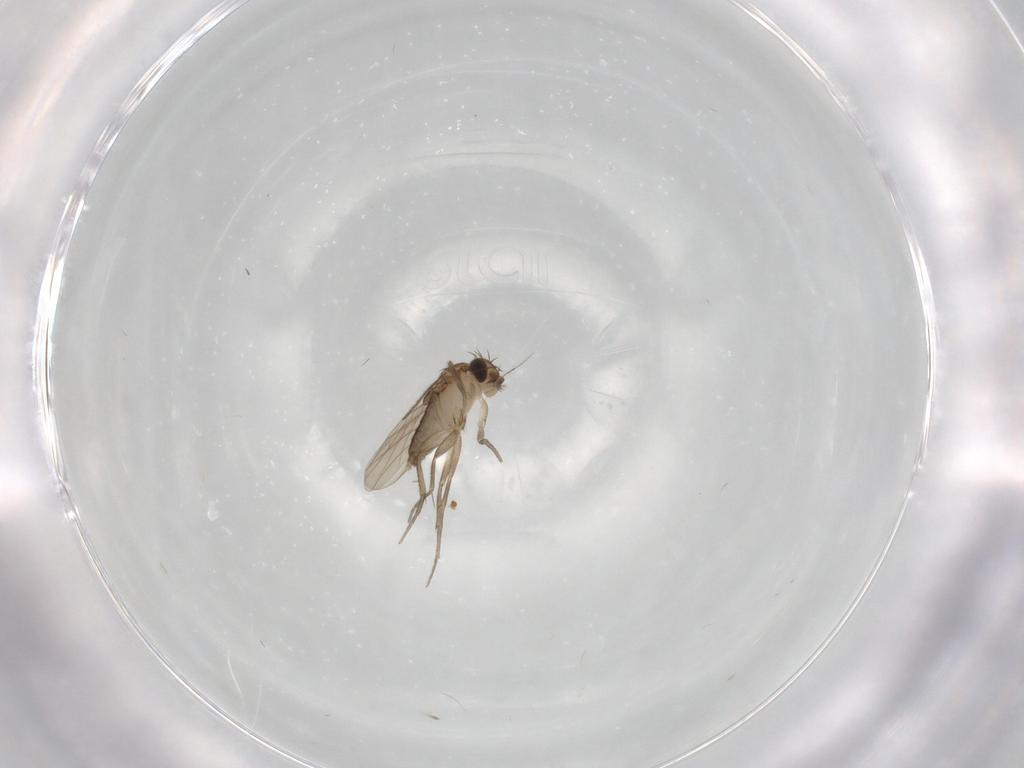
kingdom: Animalia
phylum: Arthropoda
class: Insecta
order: Diptera
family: Phoridae
